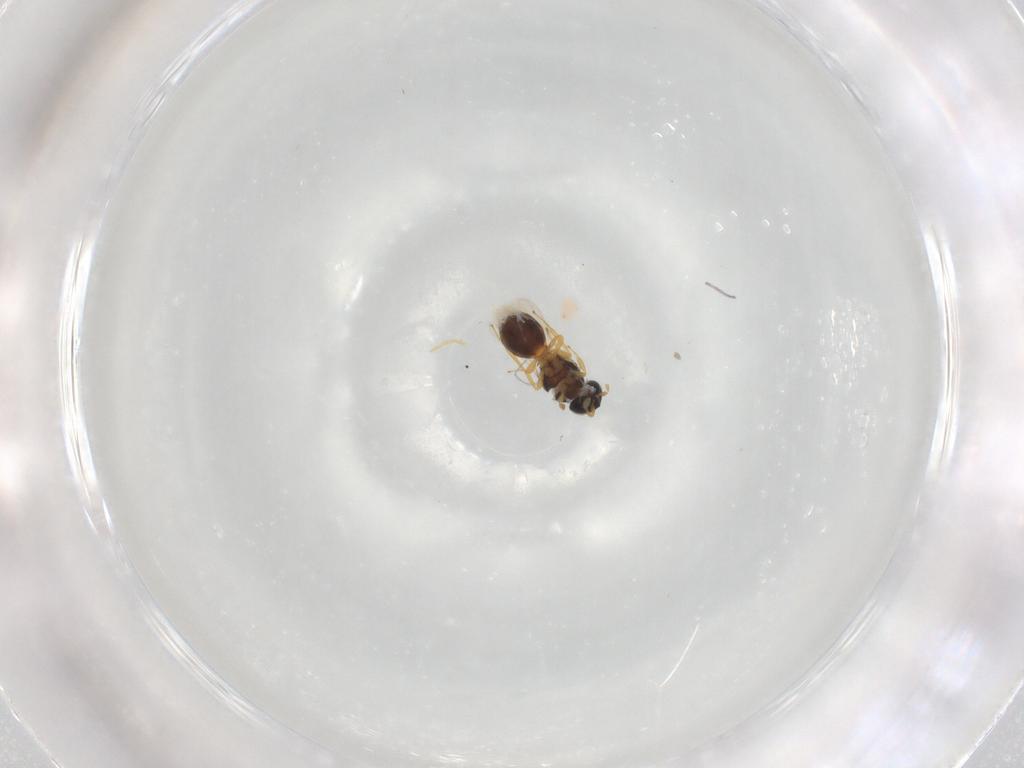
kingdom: Animalia
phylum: Arthropoda
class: Insecta
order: Hymenoptera
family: Scelionidae
